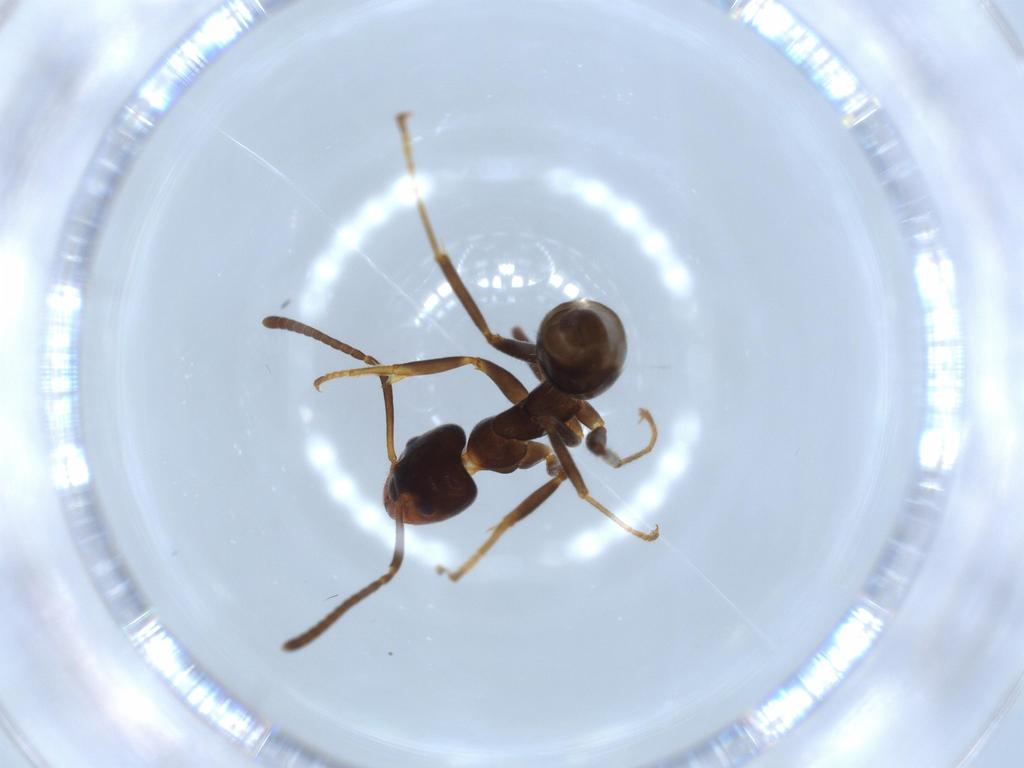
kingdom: Animalia
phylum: Arthropoda
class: Insecta
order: Hymenoptera
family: Formicidae
